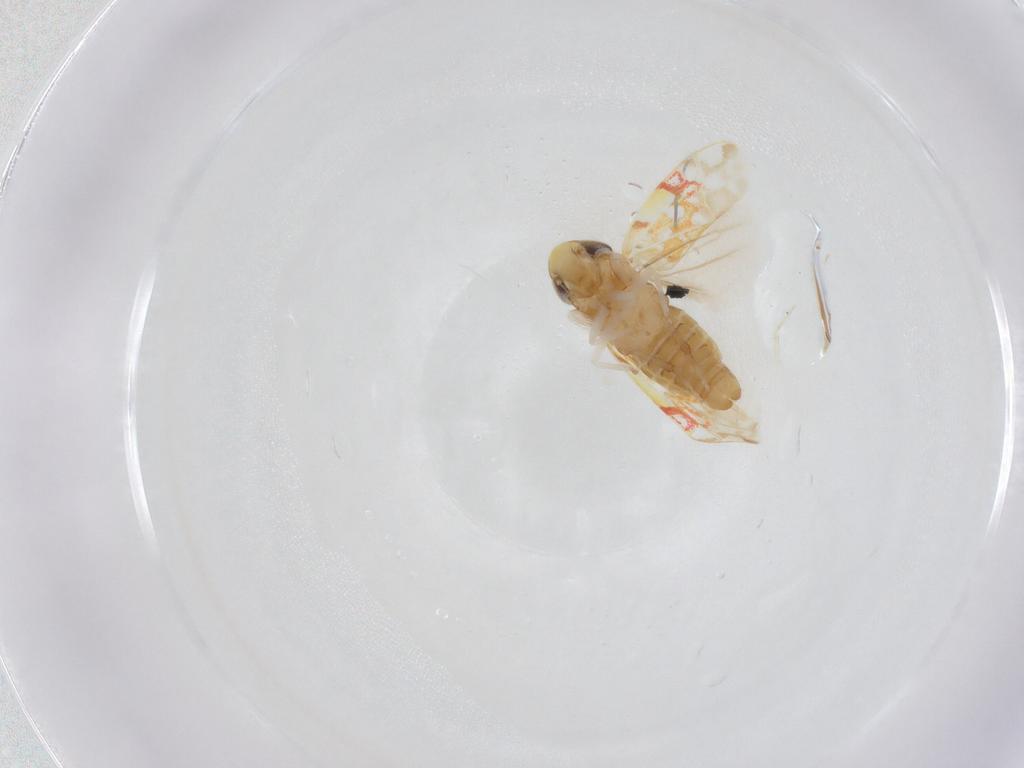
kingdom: Animalia
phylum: Arthropoda
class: Insecta
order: Hemiptera
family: Cicadellidae
